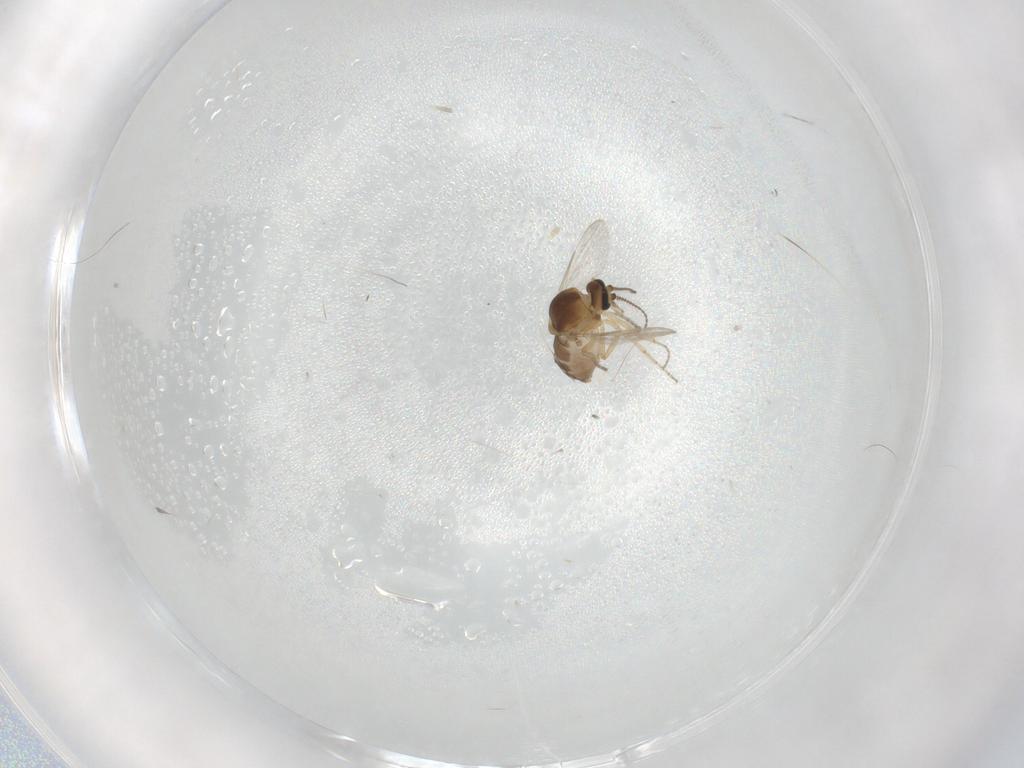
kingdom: Animalia
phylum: Arthropoda
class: Insecta
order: Diptera
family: Ceratopogonidae
